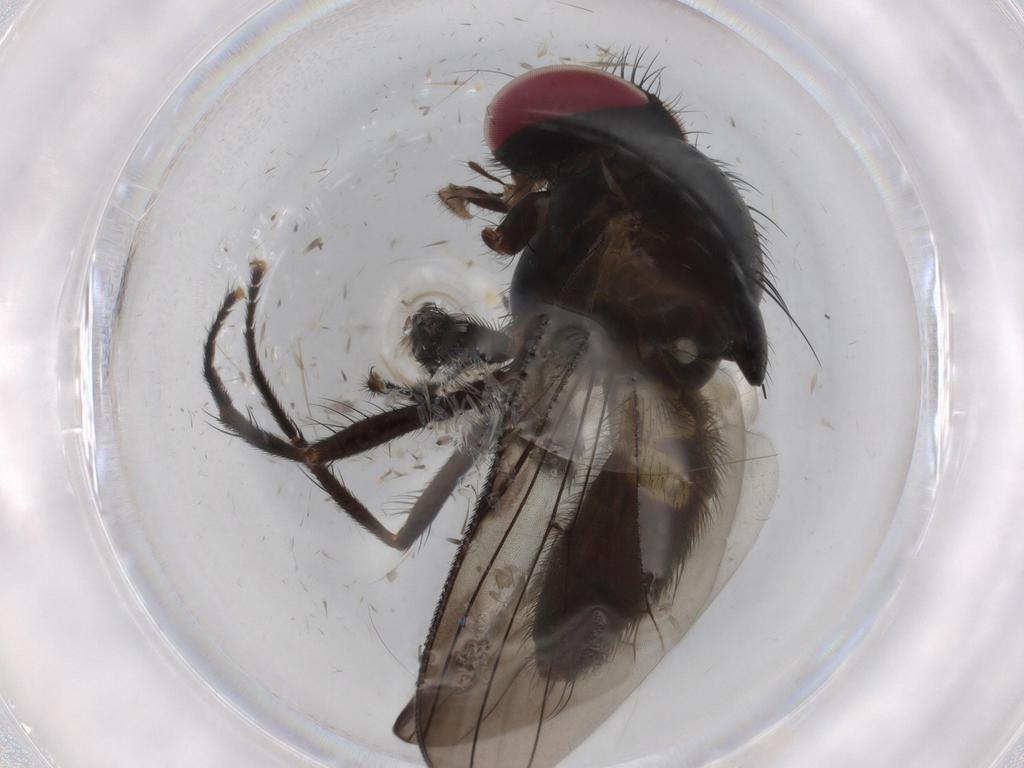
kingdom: Animalia
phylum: Arthropoda
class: Insecta
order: Diptera
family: Fannia
